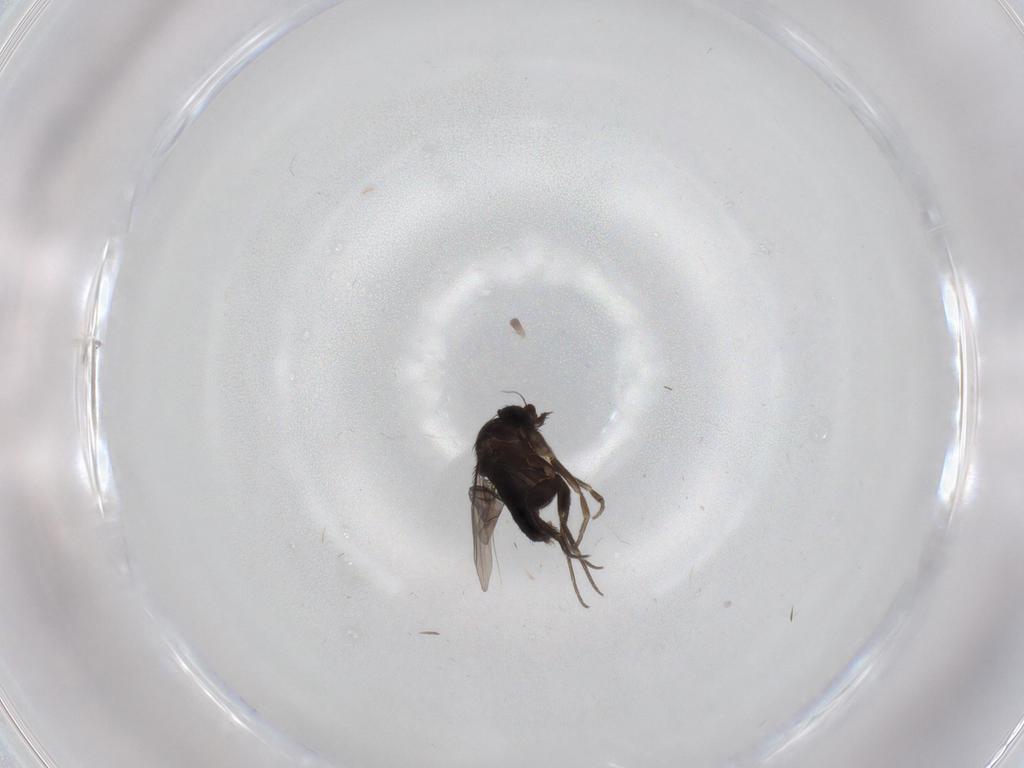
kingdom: Animalia
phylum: Arthropoda
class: Insecta
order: Diptera
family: Phoridae
